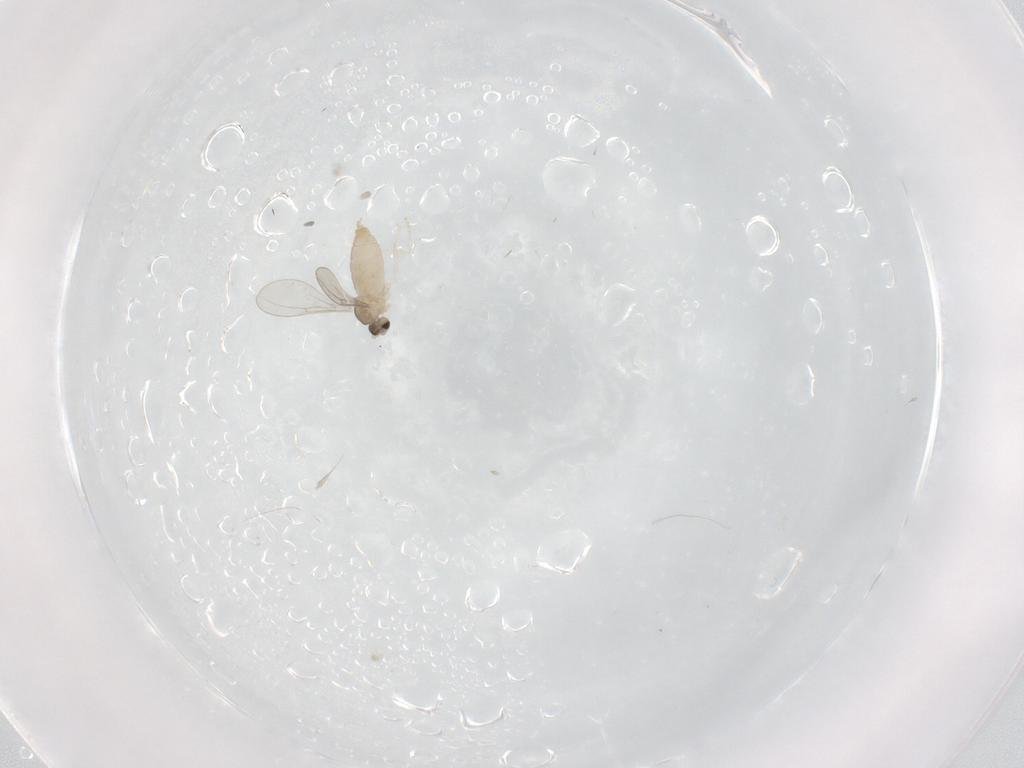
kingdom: Animalia
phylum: Arthropoda
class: Insecta
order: Diptera
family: Cecidomyiidae
